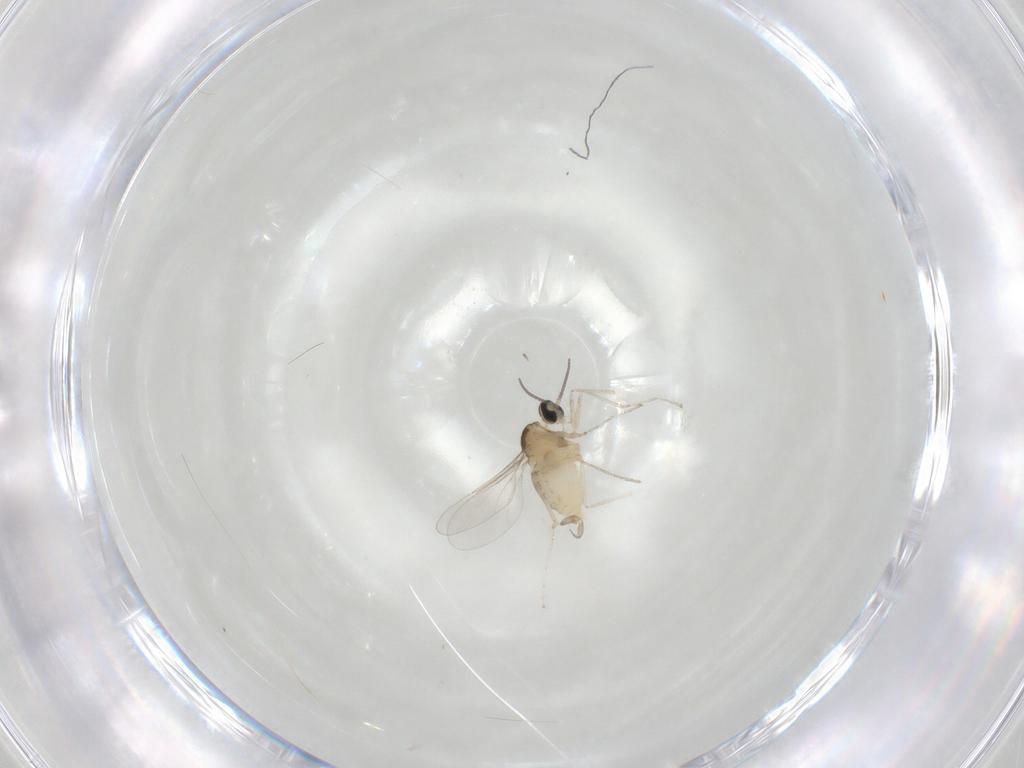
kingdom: Animalia
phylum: Arthropoda
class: Insecta
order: Diptera
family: Cecidomyiidae
